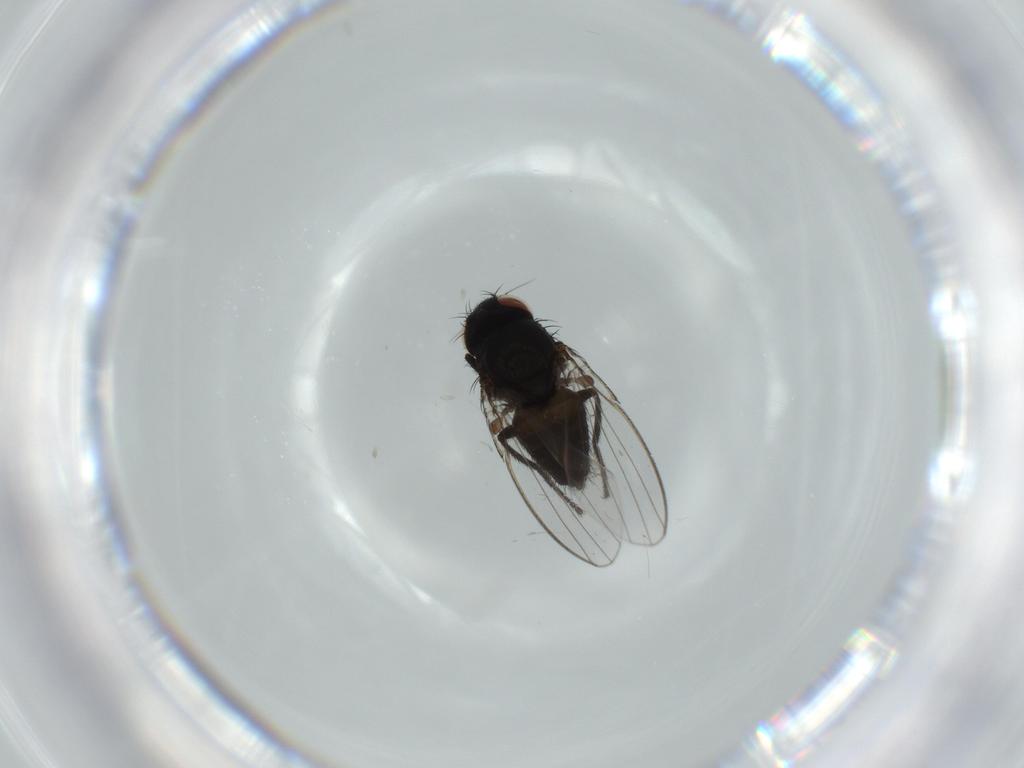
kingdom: Animalia
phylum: Arthropoda
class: Insecta
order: Diptera
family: Milichiidae
